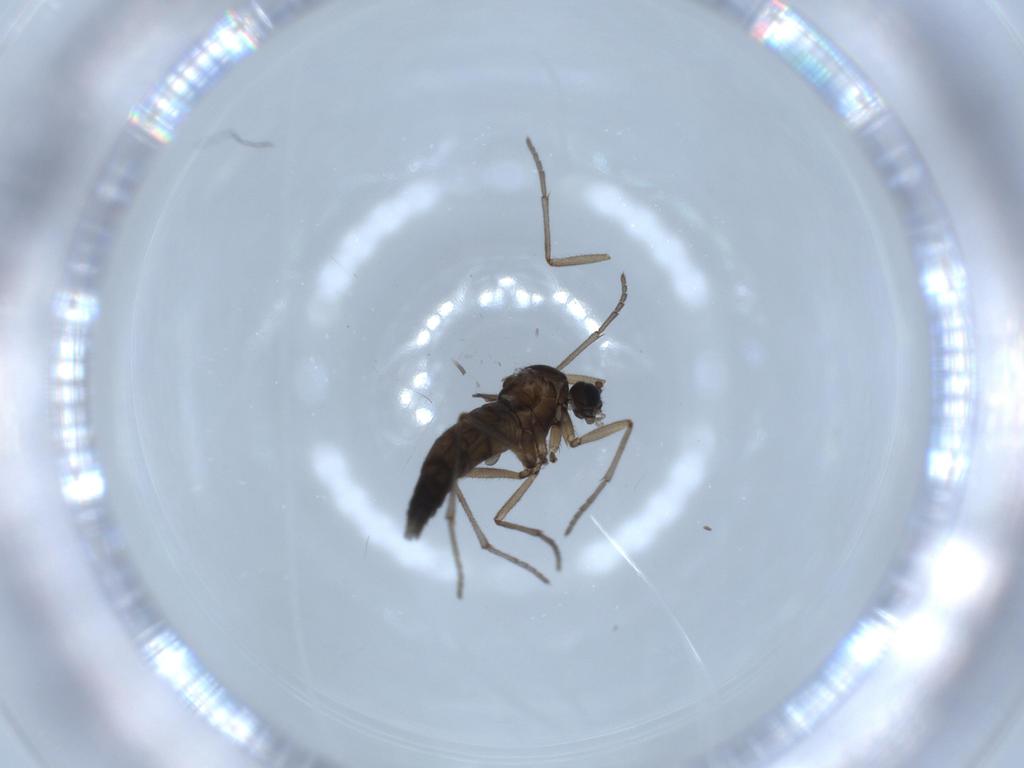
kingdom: Animalia
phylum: Arthropoda
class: Insecta
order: Diptera
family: Sciaridae
